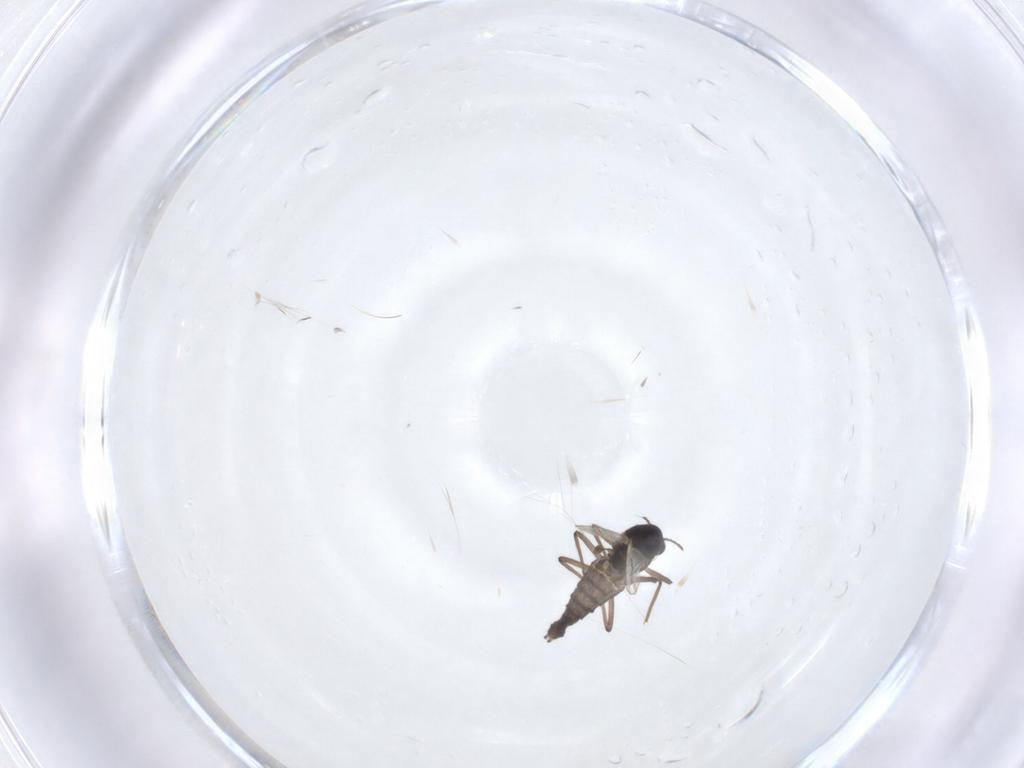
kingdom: Animalia
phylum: Arthropoda
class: Insecta
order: Diptera
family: Chironomidae
